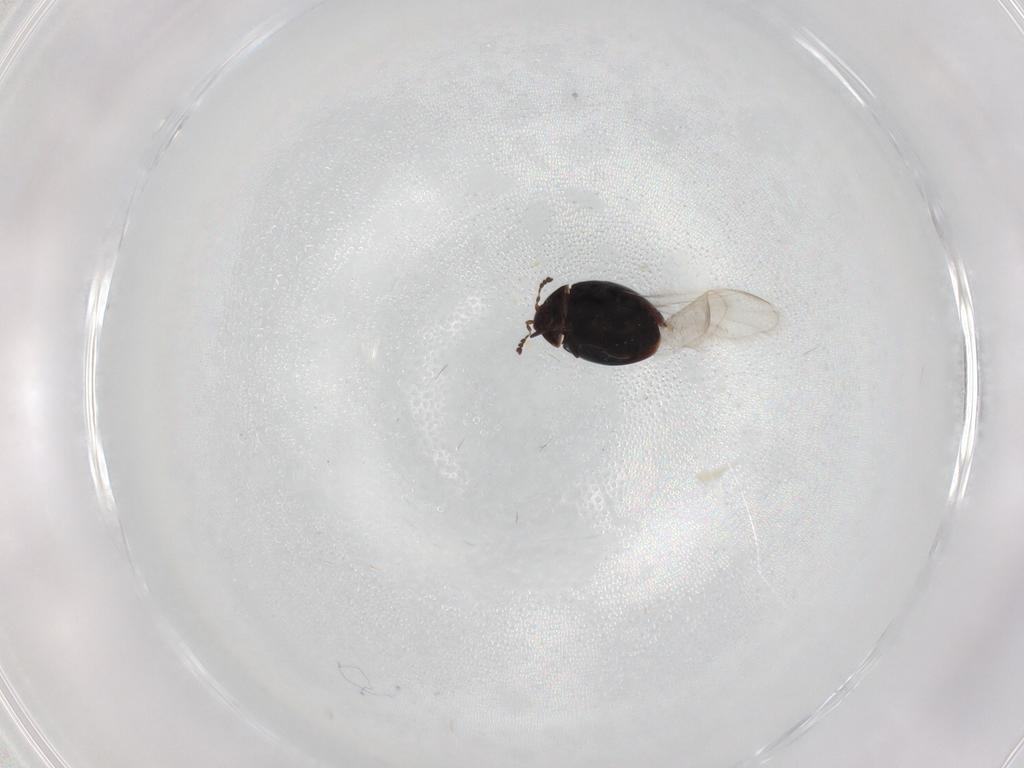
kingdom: Animalia
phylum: Arthropoda
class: Insecta
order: Coleoptera
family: Corylophidae
